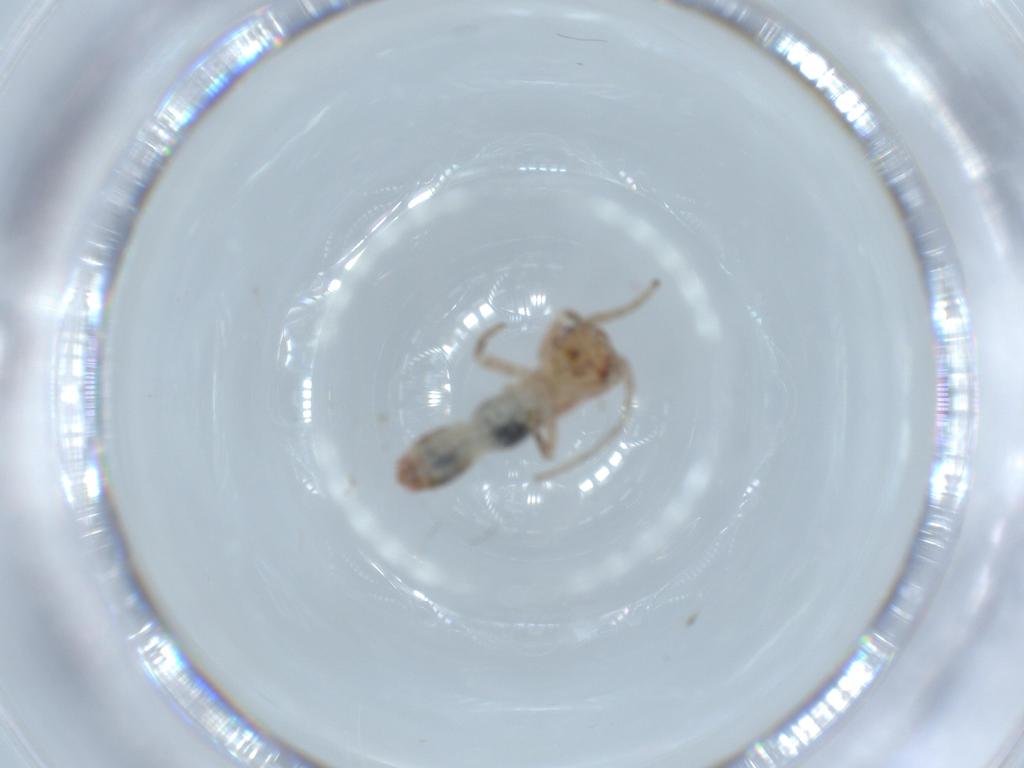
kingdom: Animalia
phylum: Arthropoda
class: Insecta
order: Orthoptera
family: Mogoplistidae
